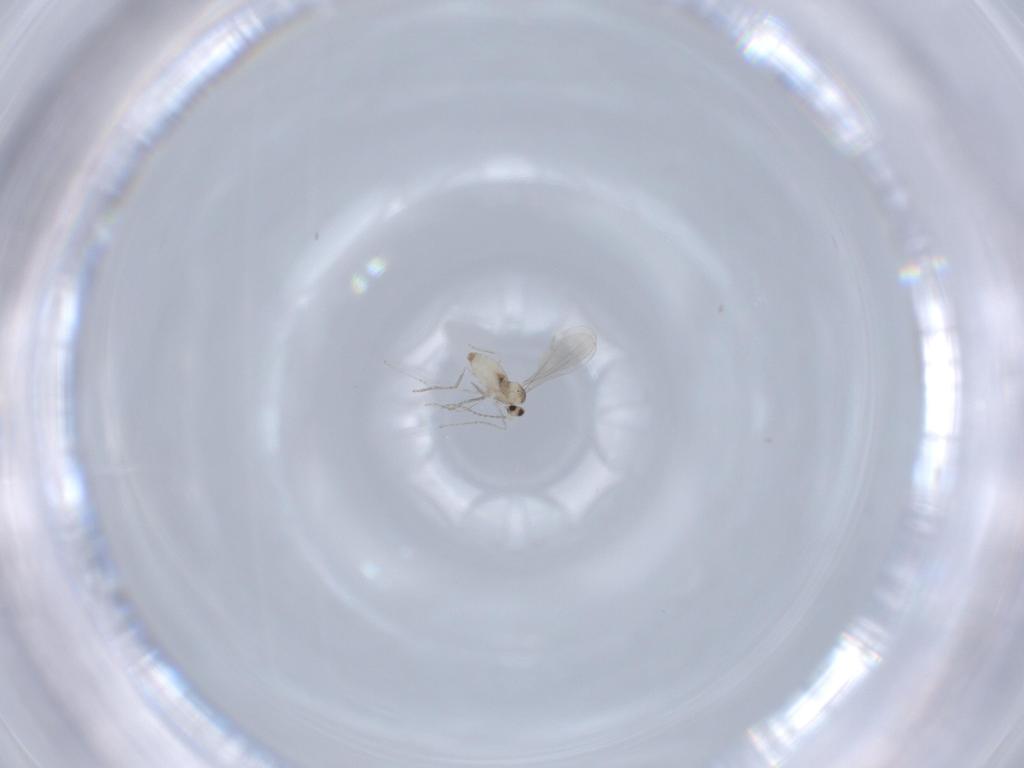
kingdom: Animalia
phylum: Arthropoda
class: Insecta
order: Diptera
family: Cecidomyiidae
